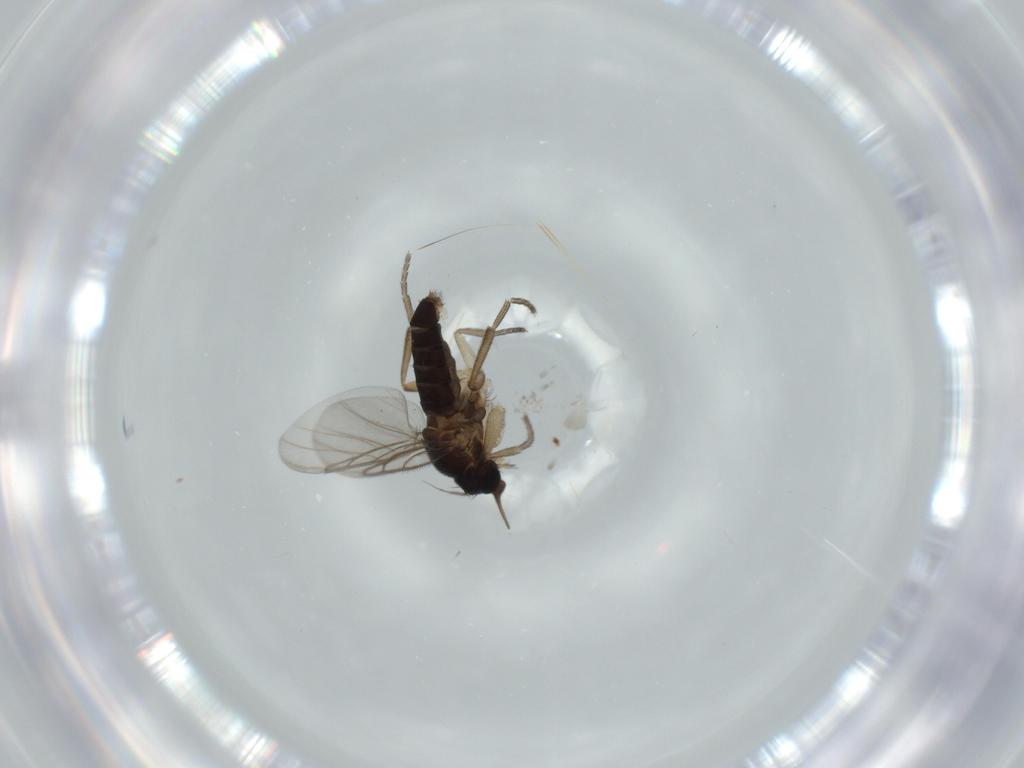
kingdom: Animalia
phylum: Arthropoda
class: Insecta
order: Diptera
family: Phoridae
